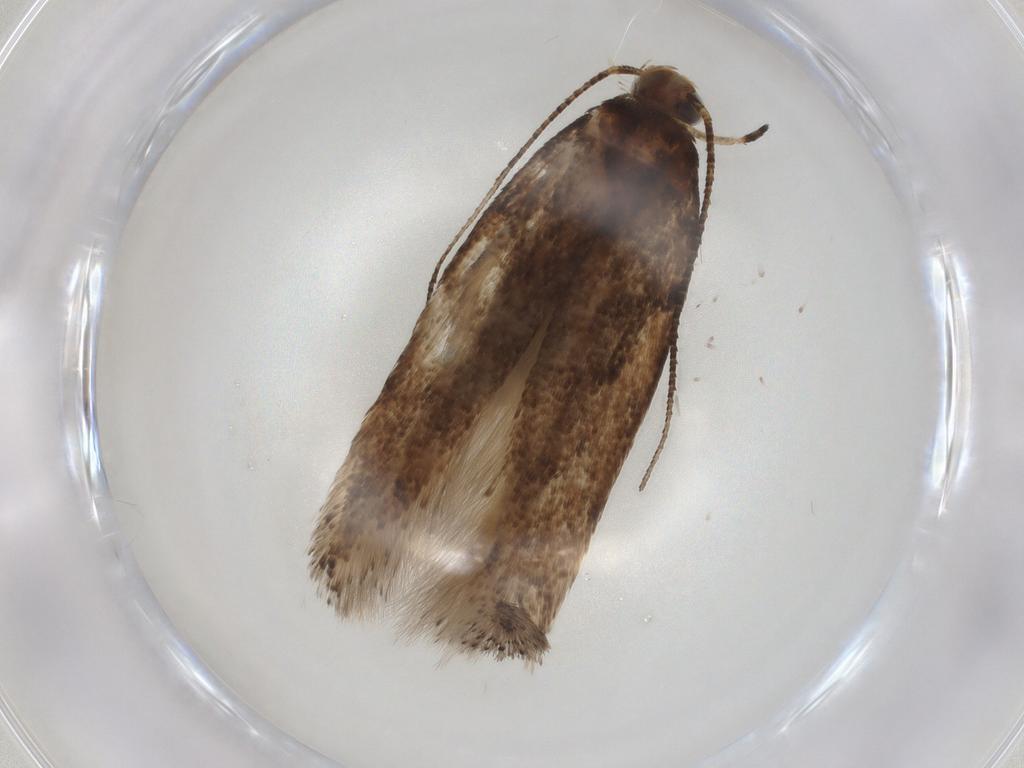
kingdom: Animalia
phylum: Arthropoda
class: Insecta
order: Lepidoptera
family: Gelechiidae
